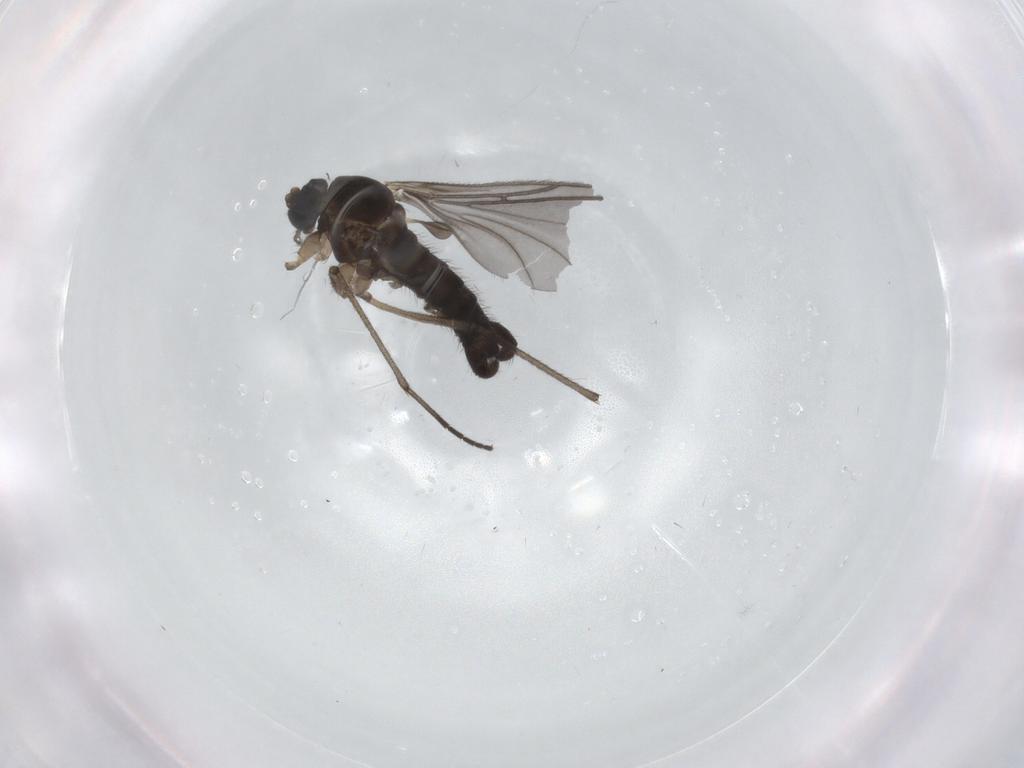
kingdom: Animalia
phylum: Arthropoda
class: Insecta
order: Diptera
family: Sciaridae
